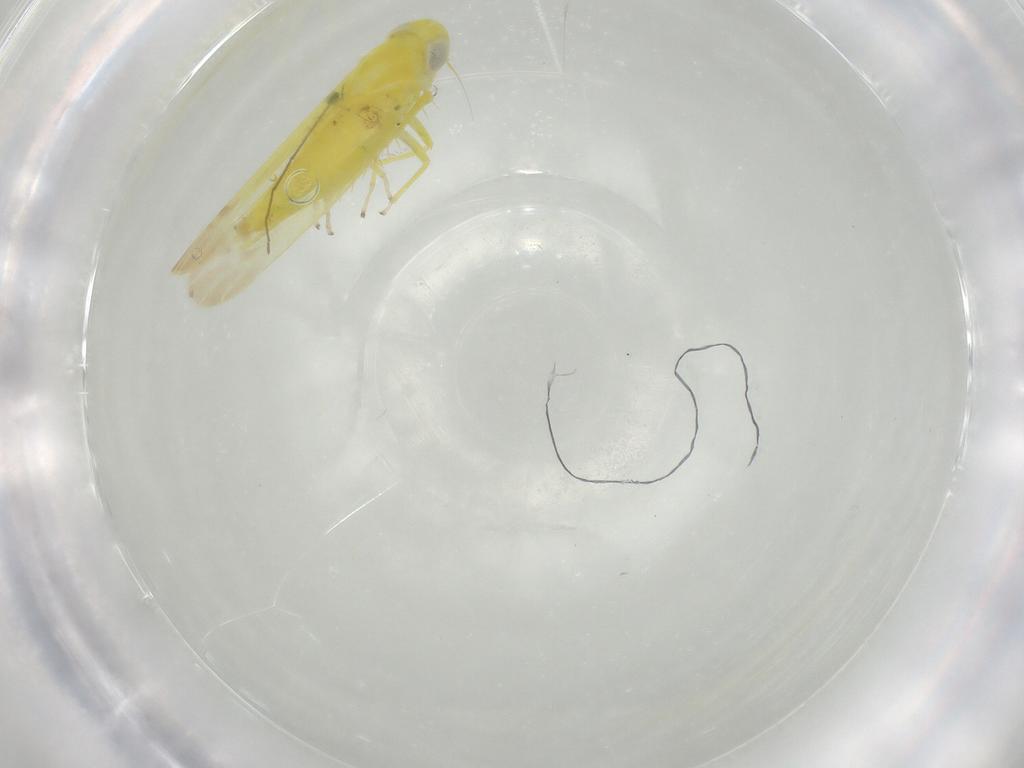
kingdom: Animalia
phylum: Arthropoda
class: Insecta
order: Hemiptera
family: Cicadellidae
